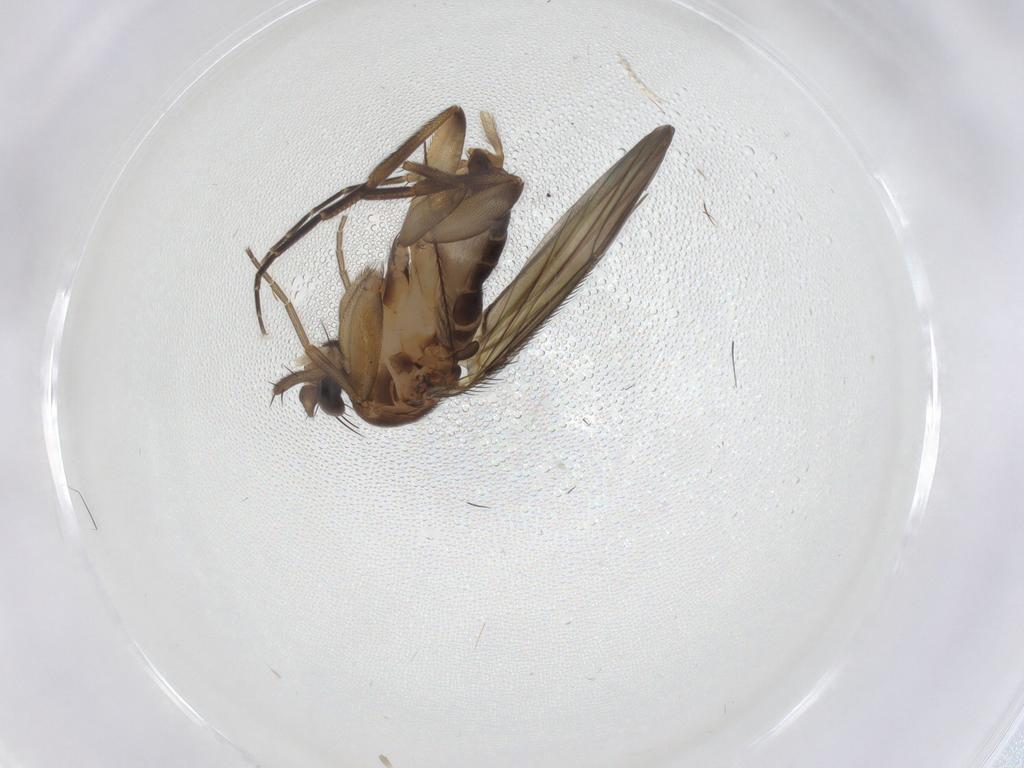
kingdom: Animalia
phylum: Arthropoda
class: Insecta
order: Diptera
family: Phoridae
